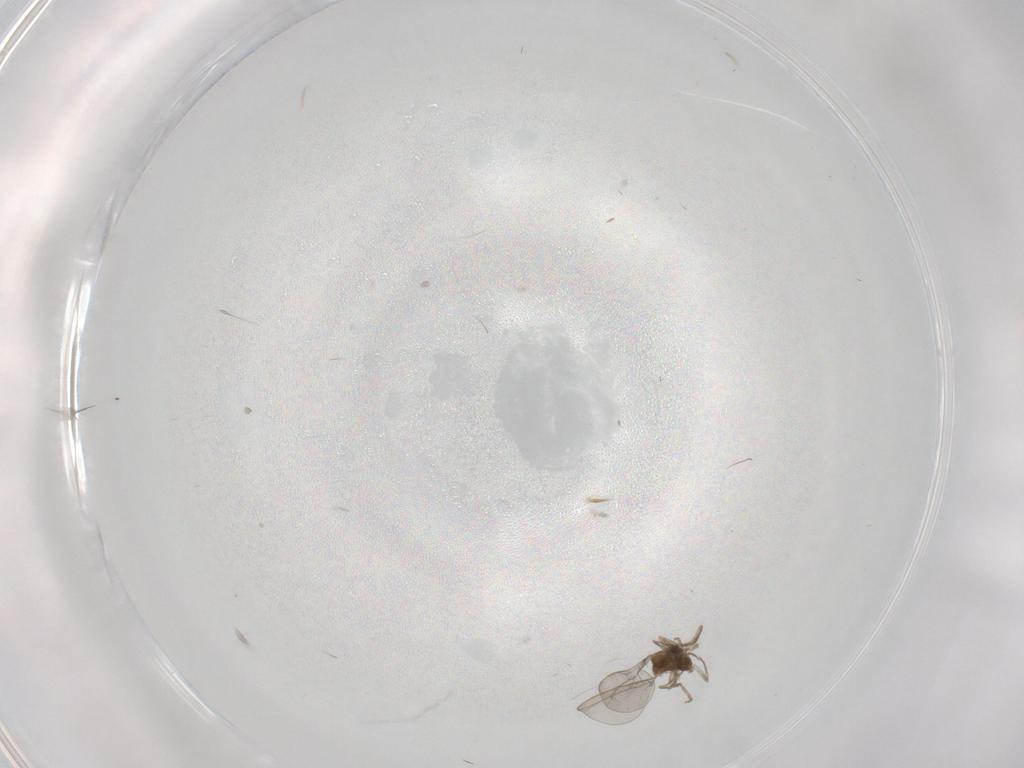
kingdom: Animalia
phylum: Arthropoda
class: Insecta
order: Diptera
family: Cecidomyiidae
